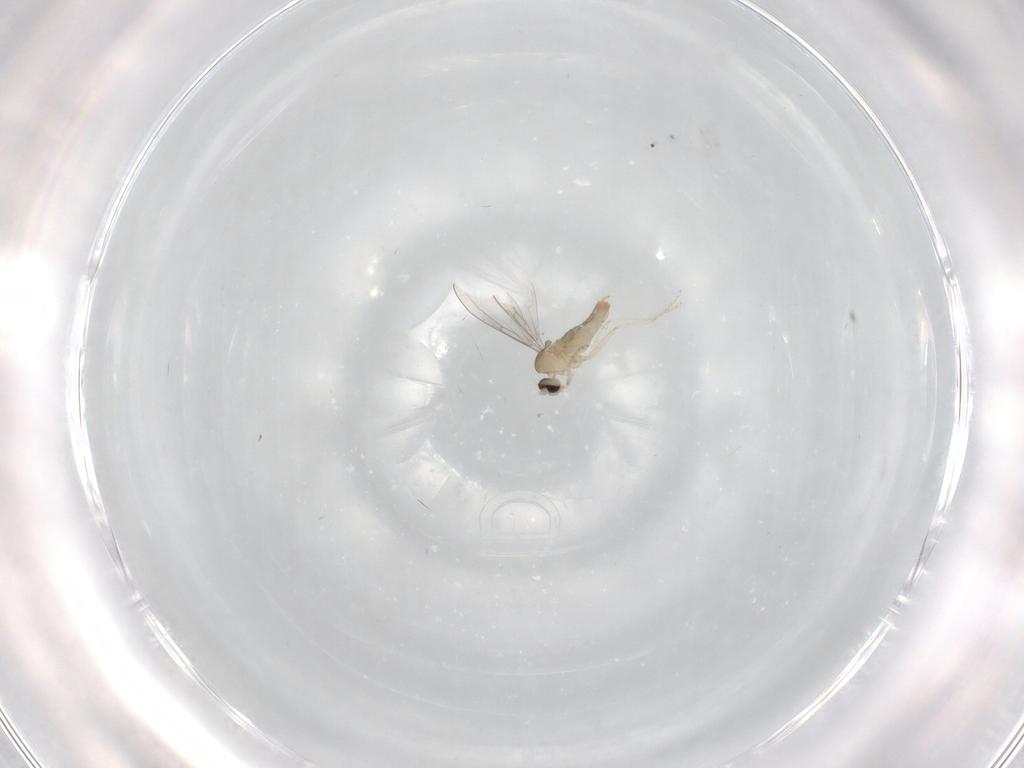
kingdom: Animalia
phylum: Arthropoda
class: Insecta
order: Diptera
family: Cecidomyiidae
